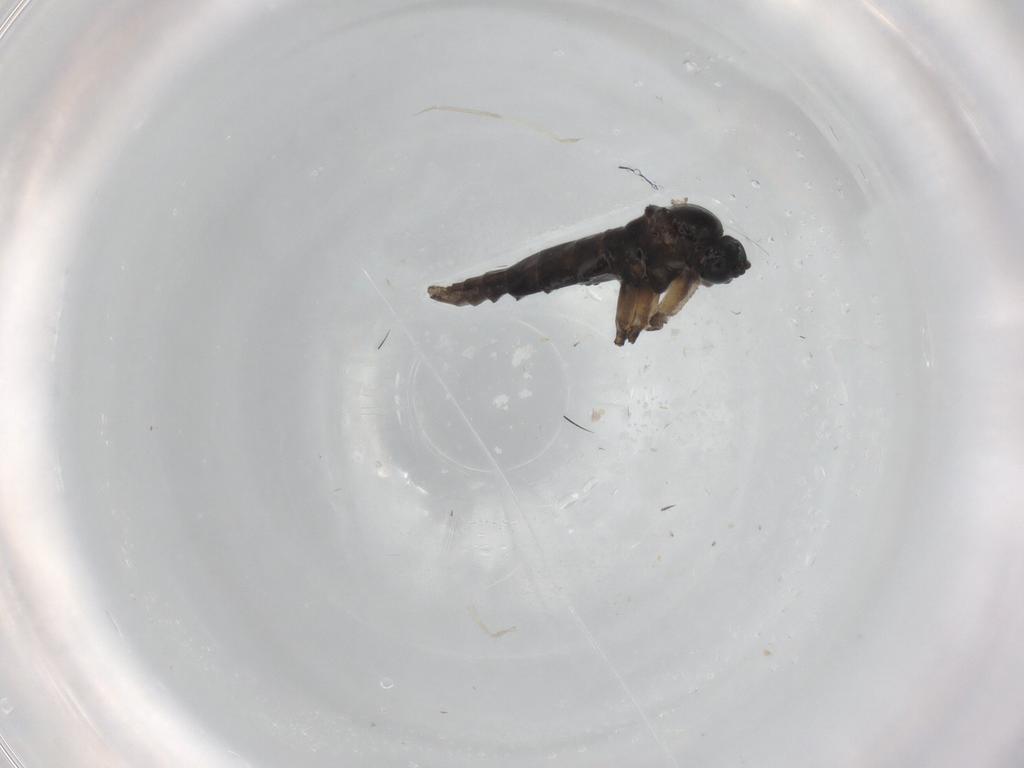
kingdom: Animalia
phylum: Arthropoda
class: Insecta
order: Diptera
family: Sciaridae
